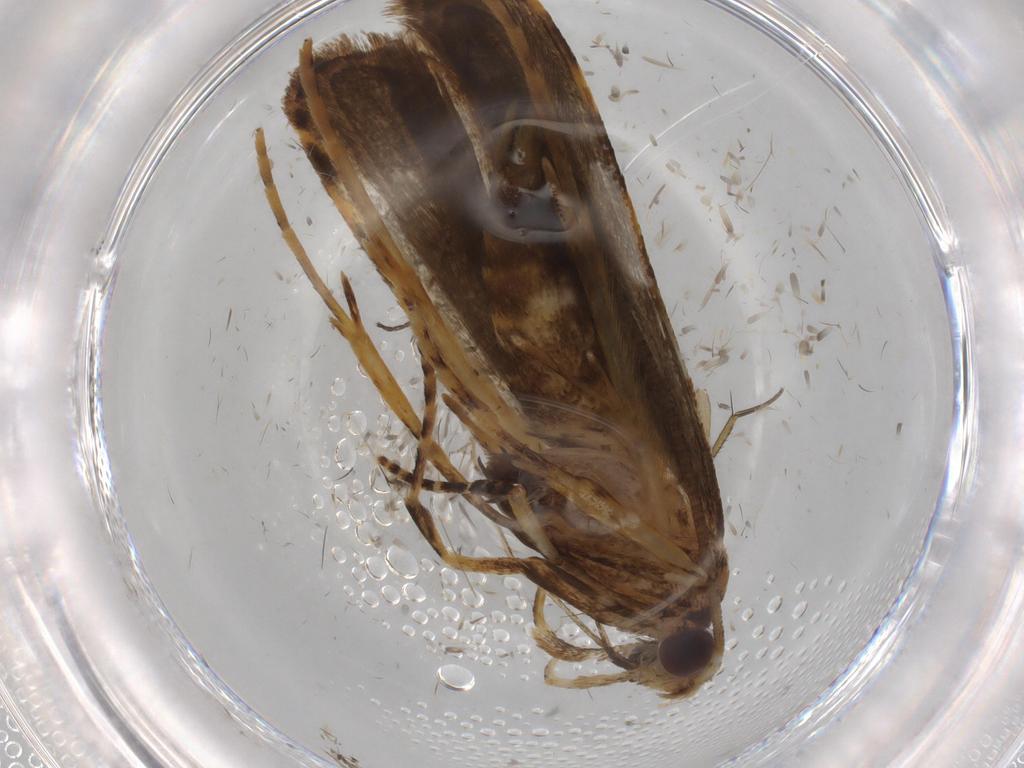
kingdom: Animalia
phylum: Arthropoda
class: Insecta
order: Lepidoptera
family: Autostichidae
